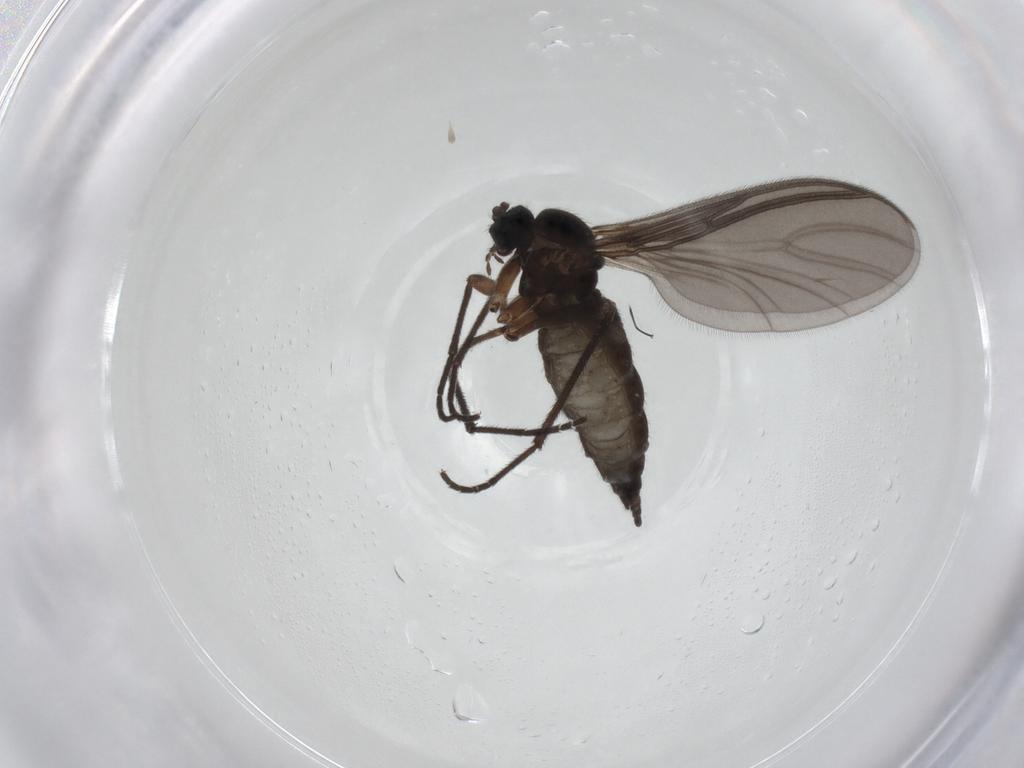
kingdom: Animalia
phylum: Arthropoda
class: Insecta
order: Diptera
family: Sciaridae
